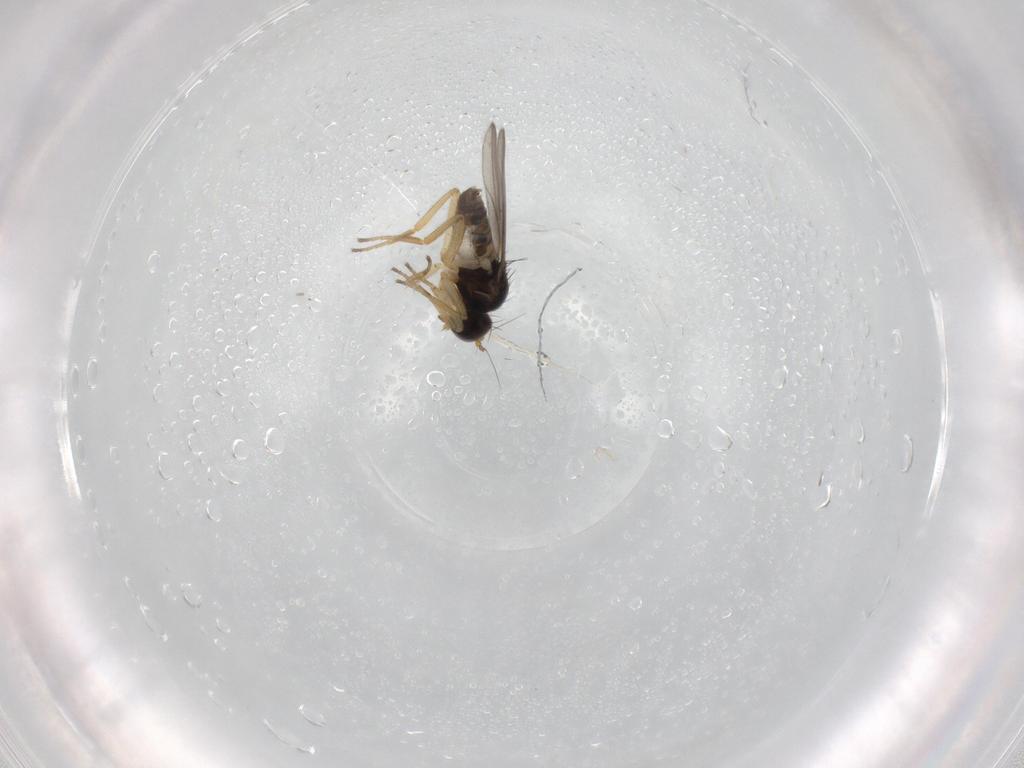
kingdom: Animalia
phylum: Arthropoda
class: Insecta
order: Diptera
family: Hybotidae
